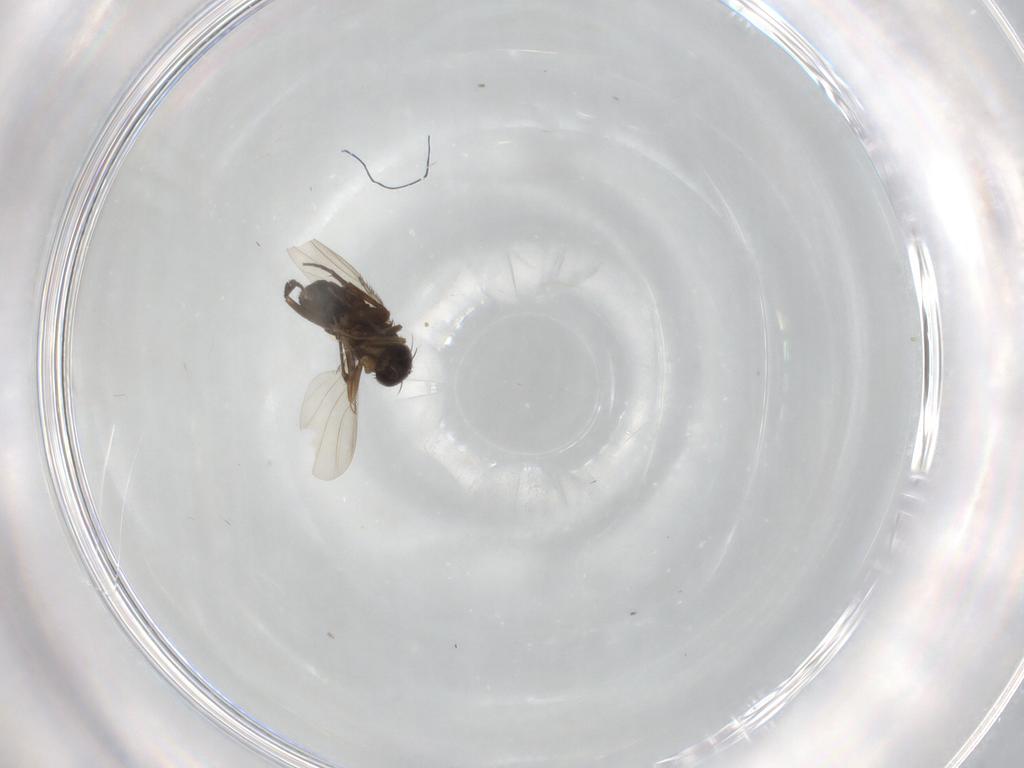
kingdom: Animalia
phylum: Arthropoda
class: Insecta
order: Diptera
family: Phoridae
